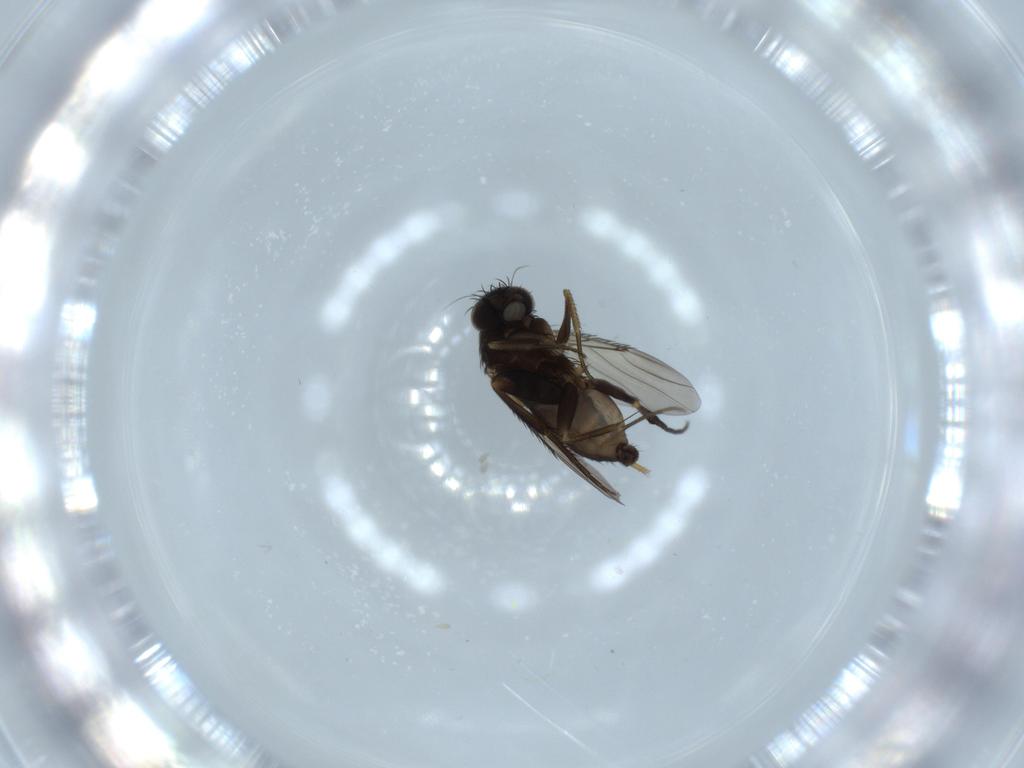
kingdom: Animalia
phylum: Arthropoda
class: Insecta
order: Diptera
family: Phoridae
